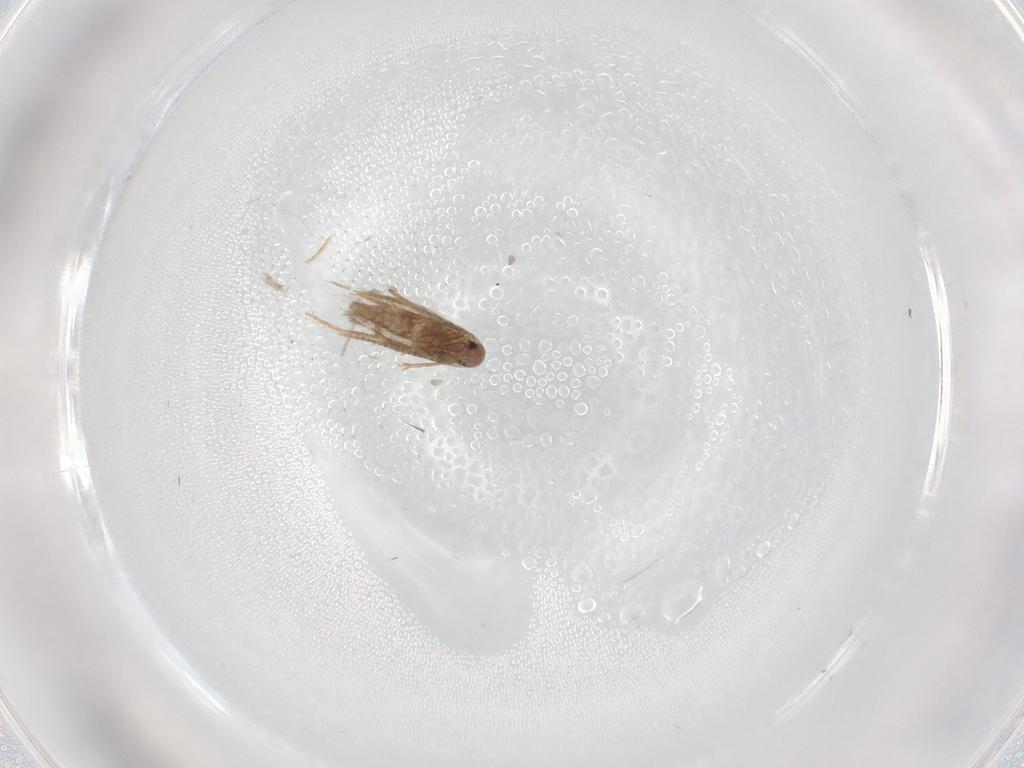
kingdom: Animalia
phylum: Arthropoda
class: Insecta
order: Lepidoptera
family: Gracillariidae
